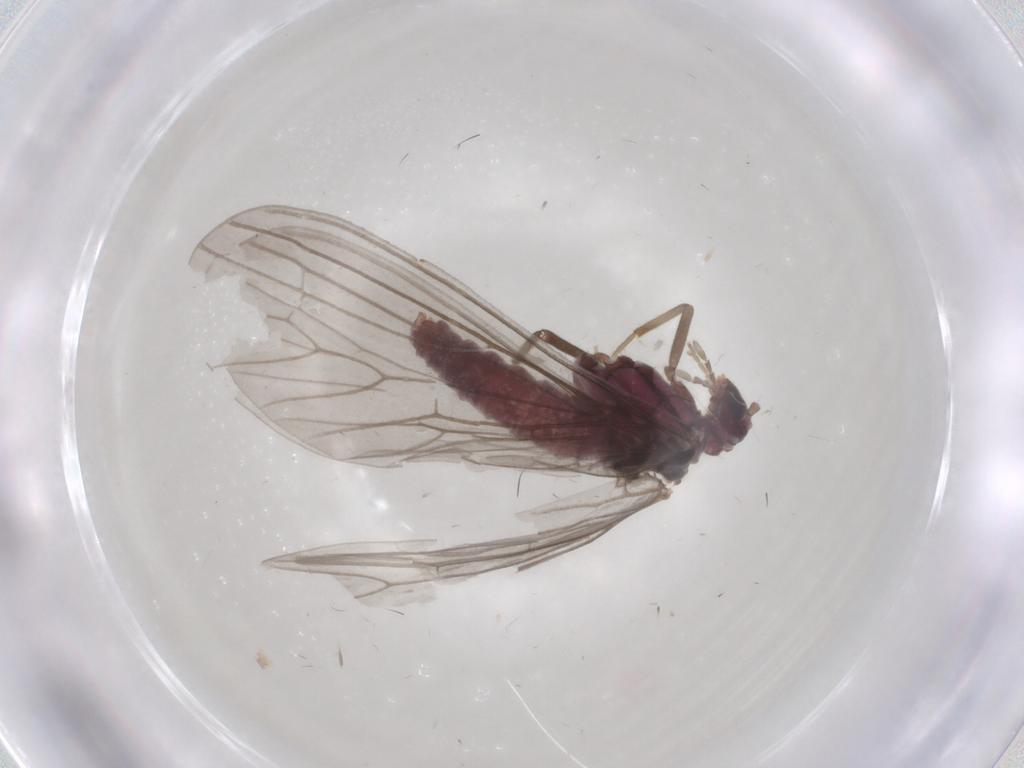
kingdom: Animalia
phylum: Arthropoda
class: Insecta
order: Neuroptera
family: Coniopterygidae
